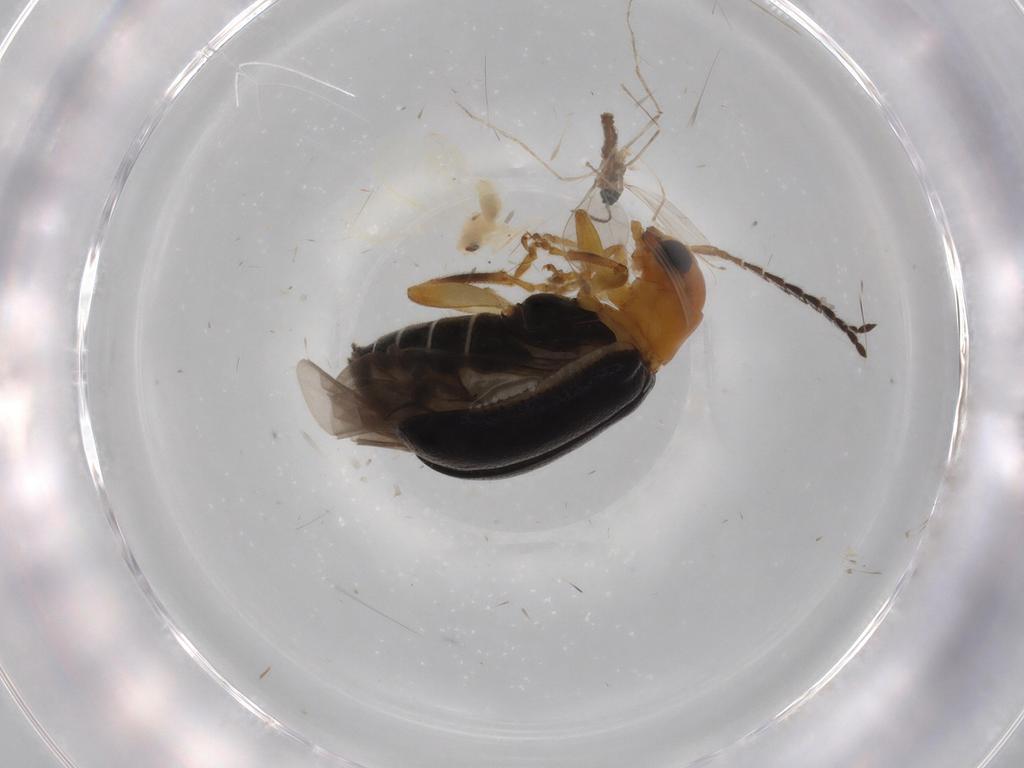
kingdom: Animalia
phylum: Arthropoda
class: Insecta
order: Diptera
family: Cecidomyiidae
